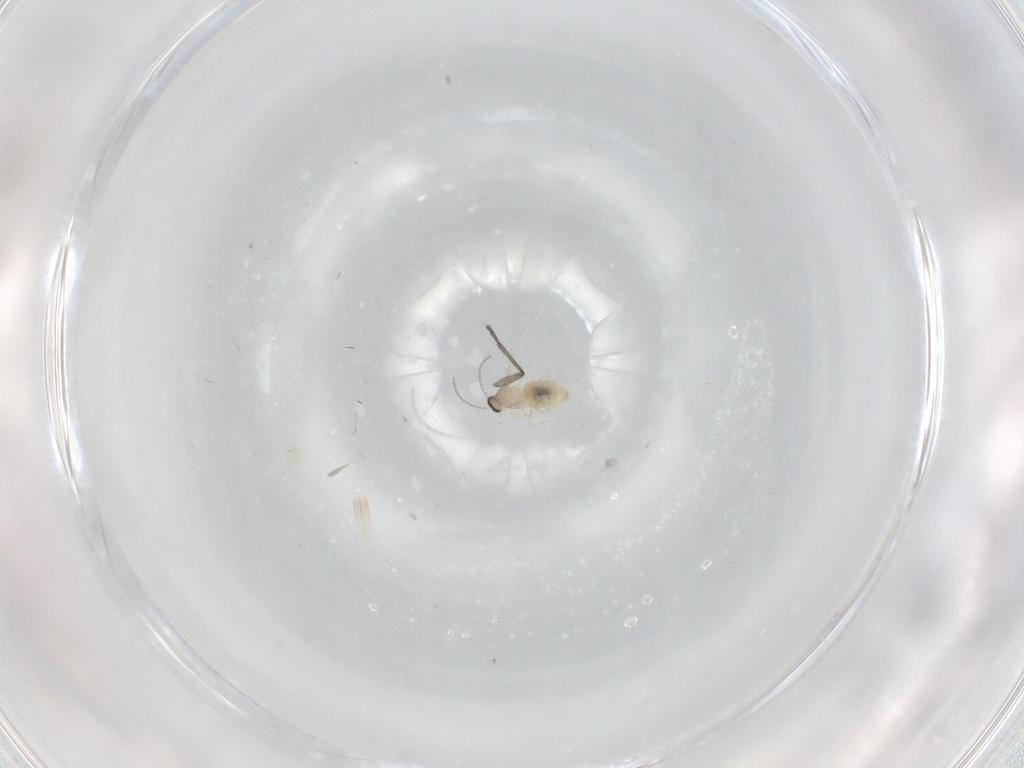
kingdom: Animalia
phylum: Arthropoda
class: Insecta
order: Diptera
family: Cecidomyiidae
